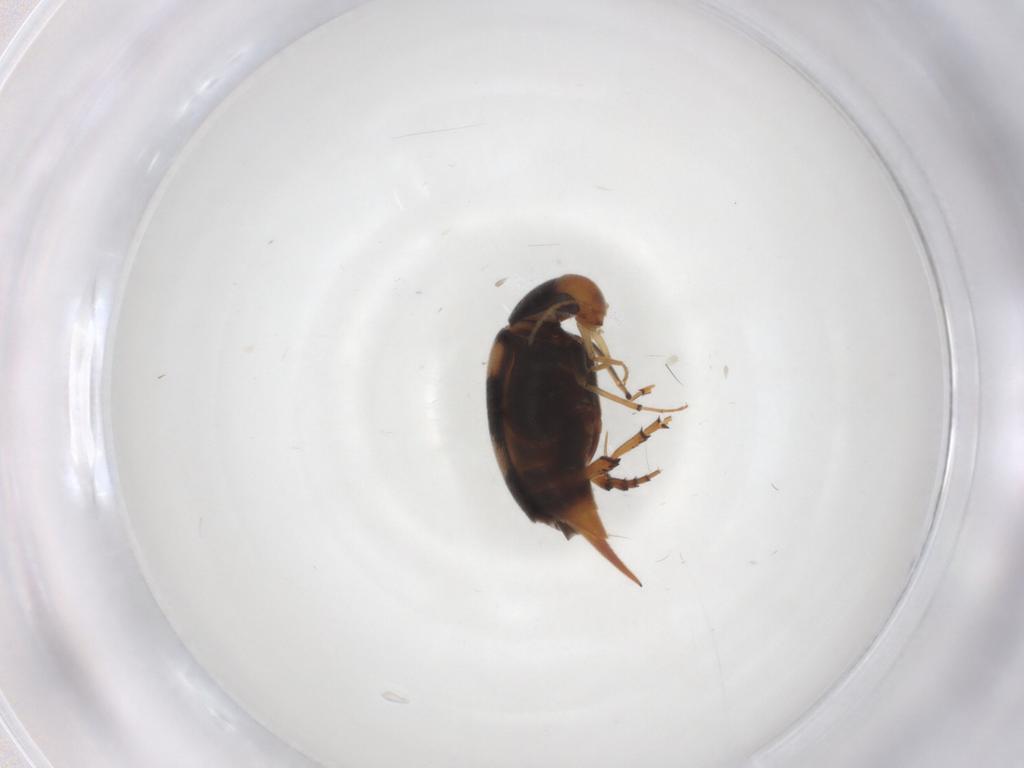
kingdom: Animalia
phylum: Arthropoda
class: Insecta
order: Coleoptera
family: Mordellidae
